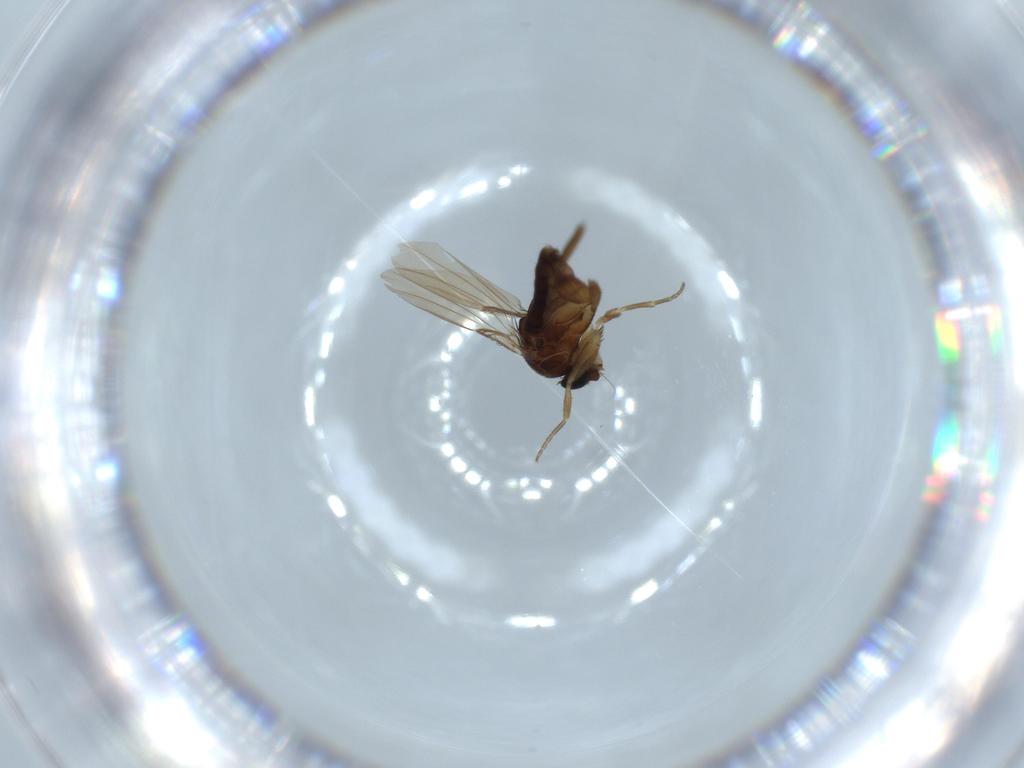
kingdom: Animalia
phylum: Arthropoda
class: Insecta
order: Diptera
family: Phoridae
